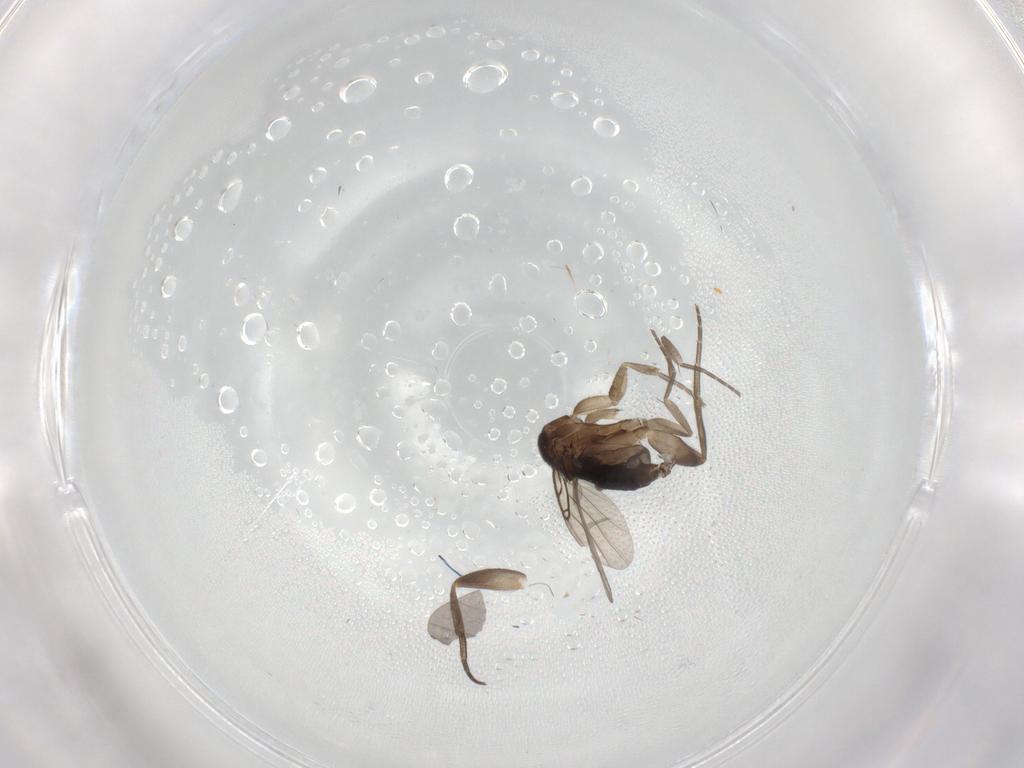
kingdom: Animalia
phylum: Arthropoda
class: Insecta
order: Diptera
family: Phoridae
